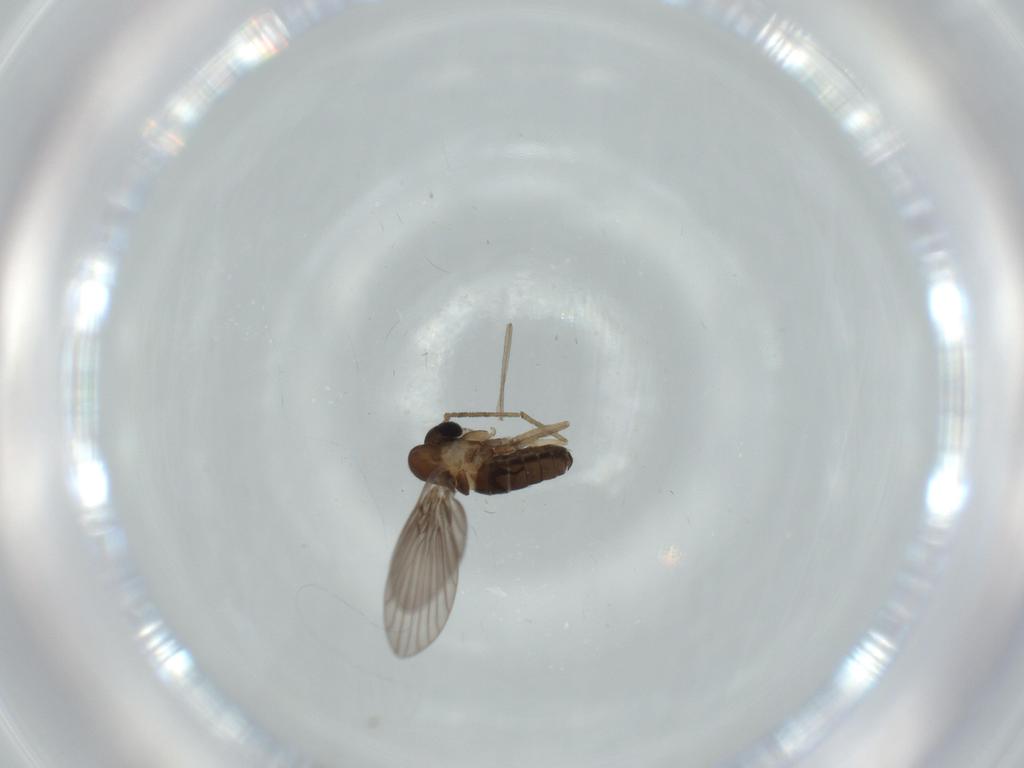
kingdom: Animalia
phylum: Arthropoda
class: Insecta
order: Diptera
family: Psychodidae
